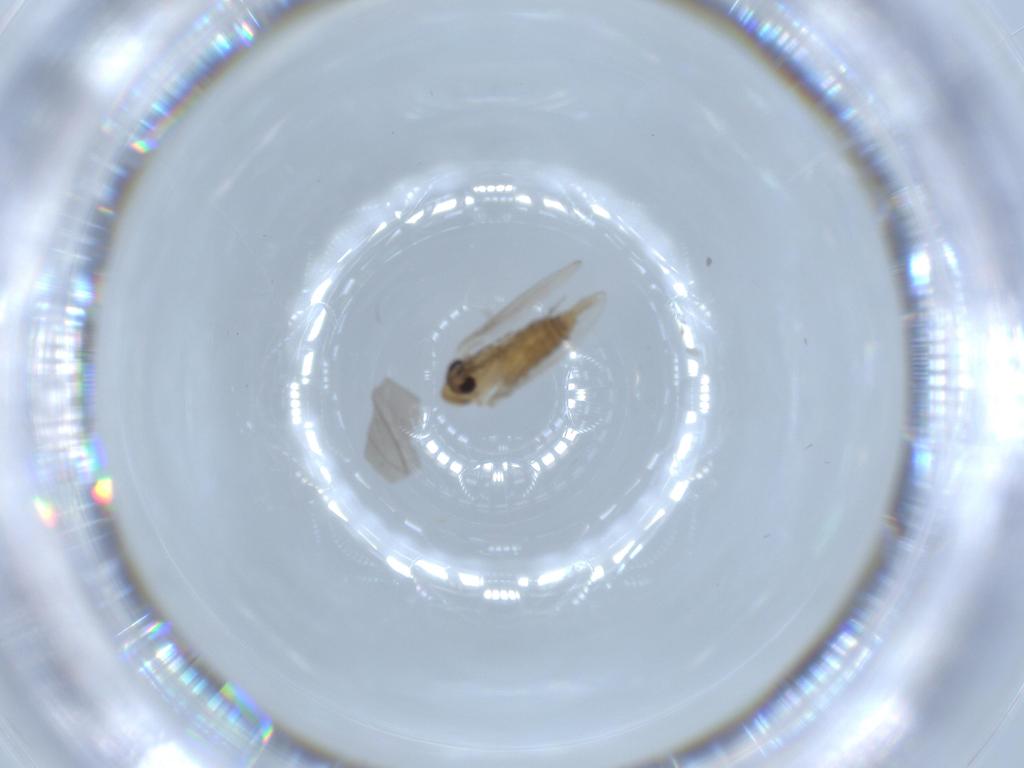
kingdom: Animalia
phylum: Arthropoda
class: Insecta
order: Diptera
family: Psychodidae
